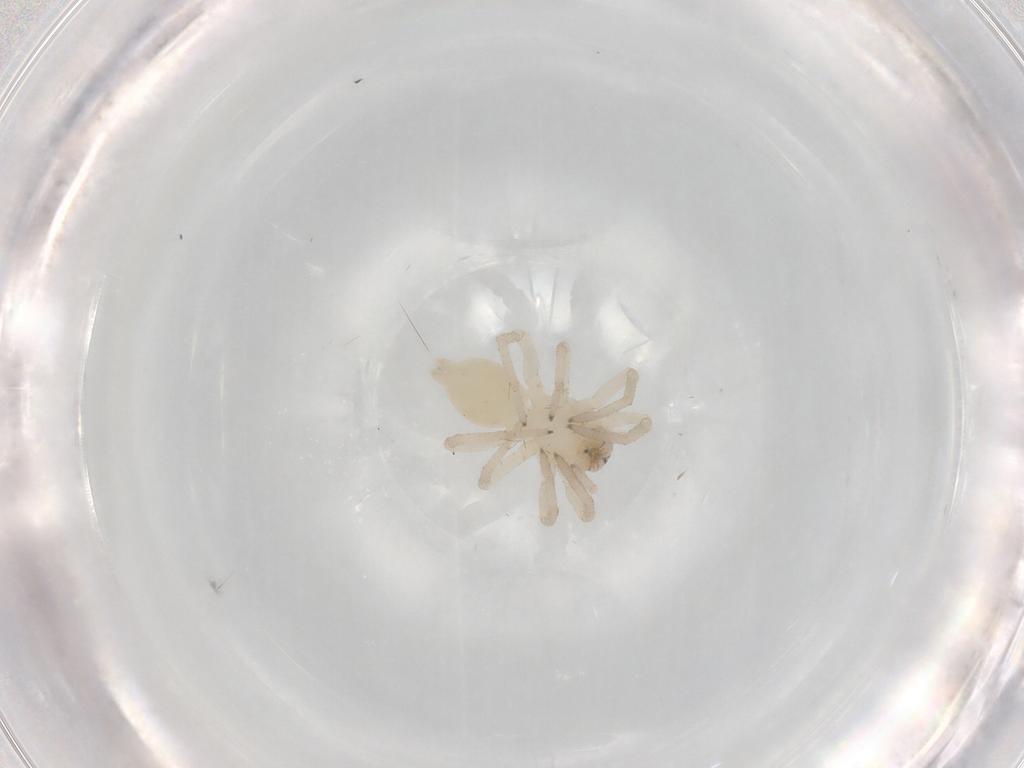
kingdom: Animalia
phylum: Arthropoda
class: Arachnida
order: Araneae
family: Clubionidae
